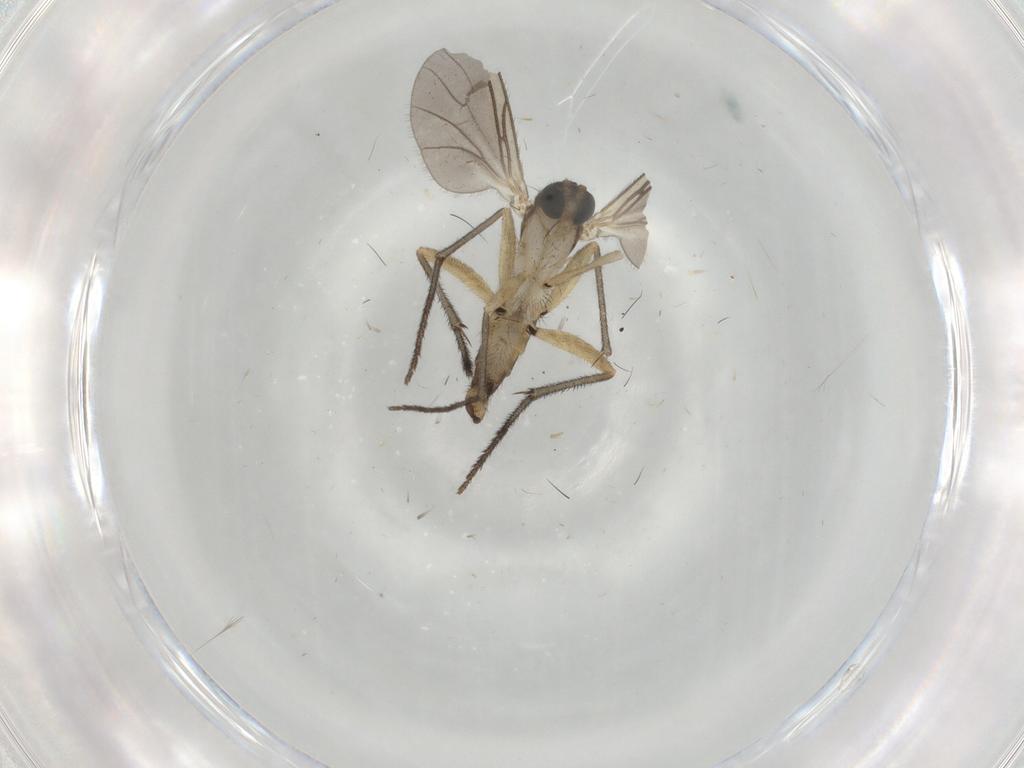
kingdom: Animalia
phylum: Arthropoda
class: Insecta
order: Diptera
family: Sciaridae
